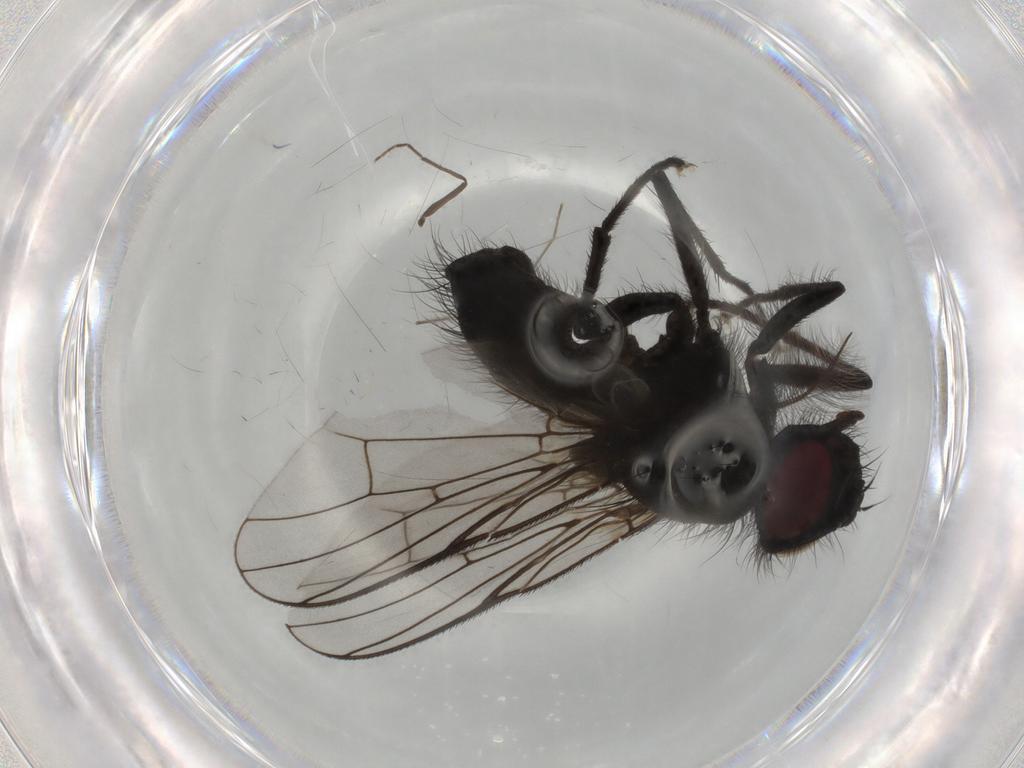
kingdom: Animalia
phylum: Arthropoda
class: Insecta
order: Diptera
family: Muscidae
